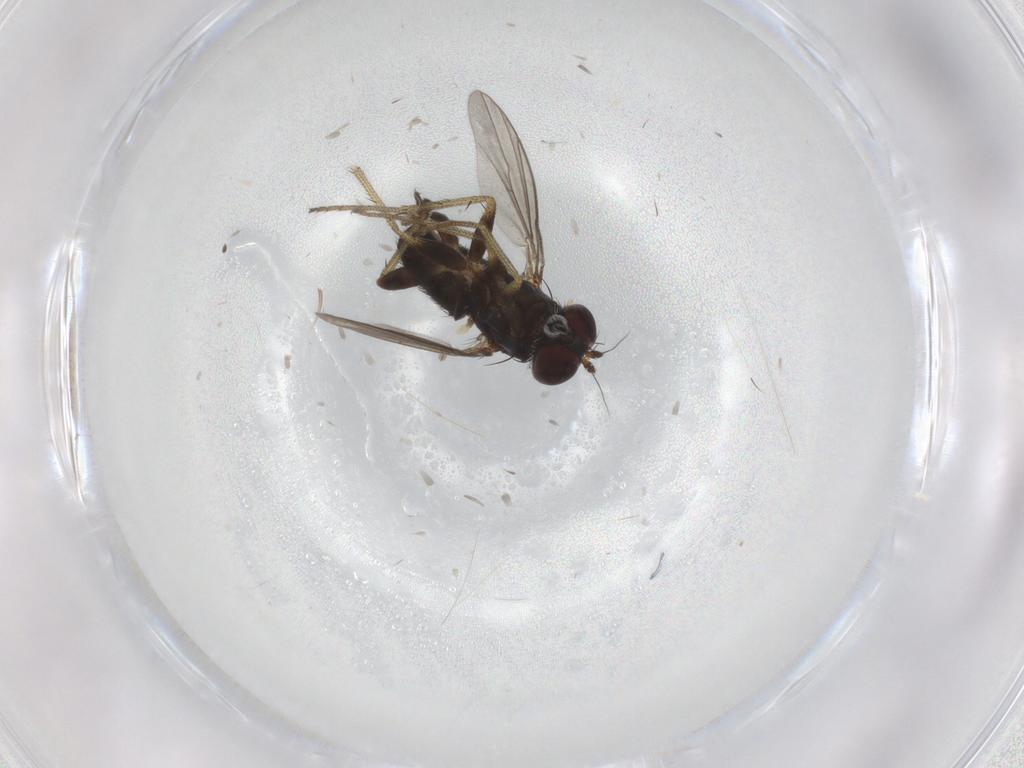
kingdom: Animalia
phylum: Arthropoda
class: Insecta
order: Diptera
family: Dolichopodidae
